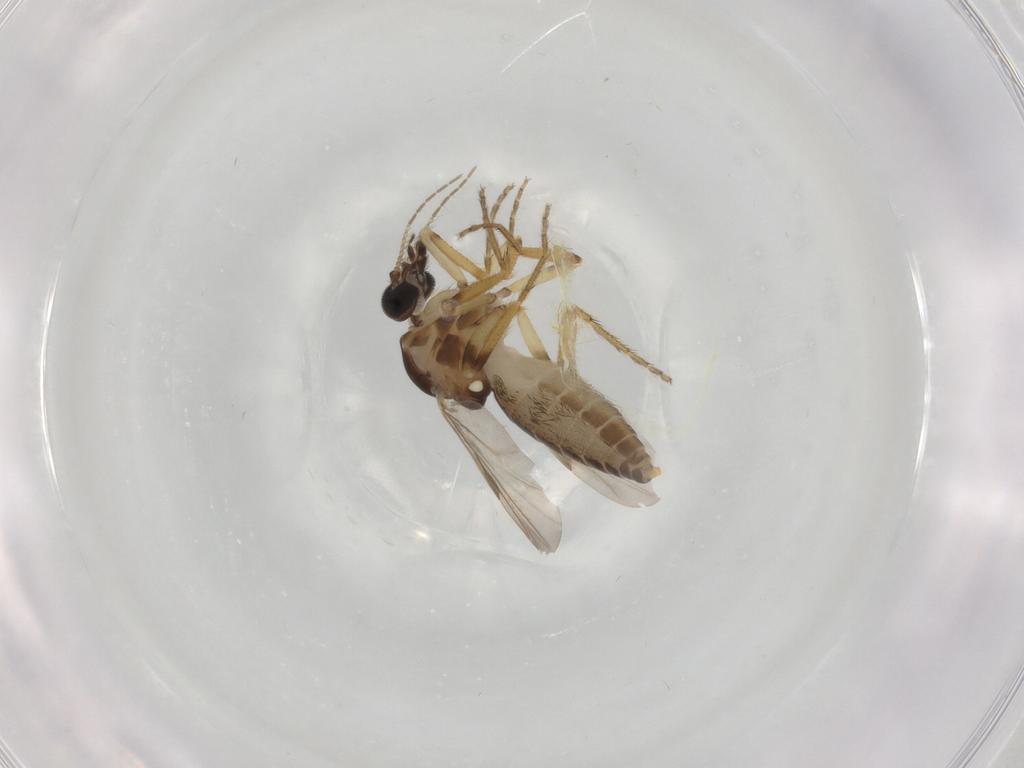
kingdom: Animalia
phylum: Arthropoda
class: Insecta
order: Diptera
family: Ceratopogonidae
